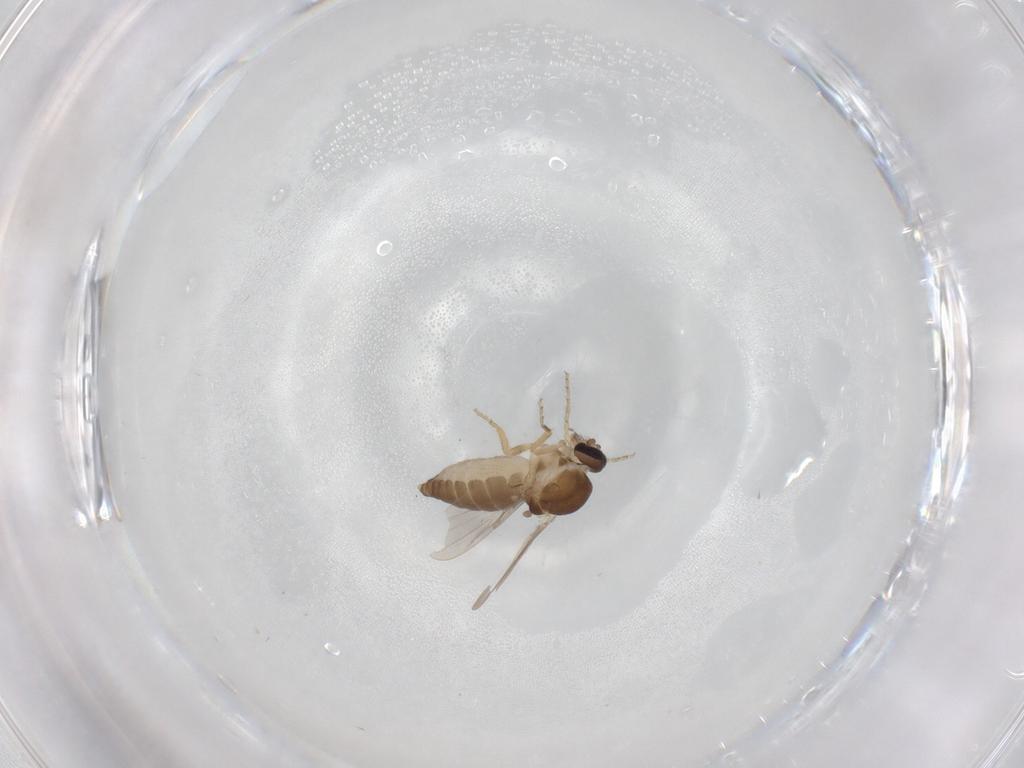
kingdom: Animalia
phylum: Arthropoda
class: Insecta
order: Diptera
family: Ceratopogonidae
